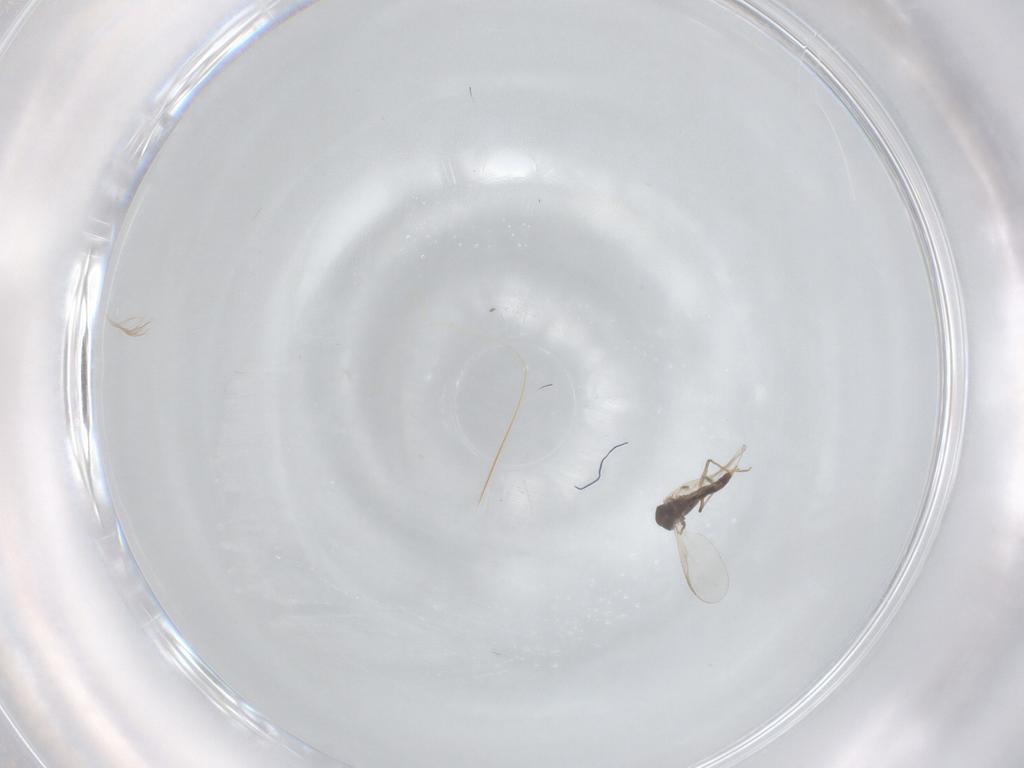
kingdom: Animalia
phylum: Arthropoda
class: Insecta
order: Diptera
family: Chironomidae
